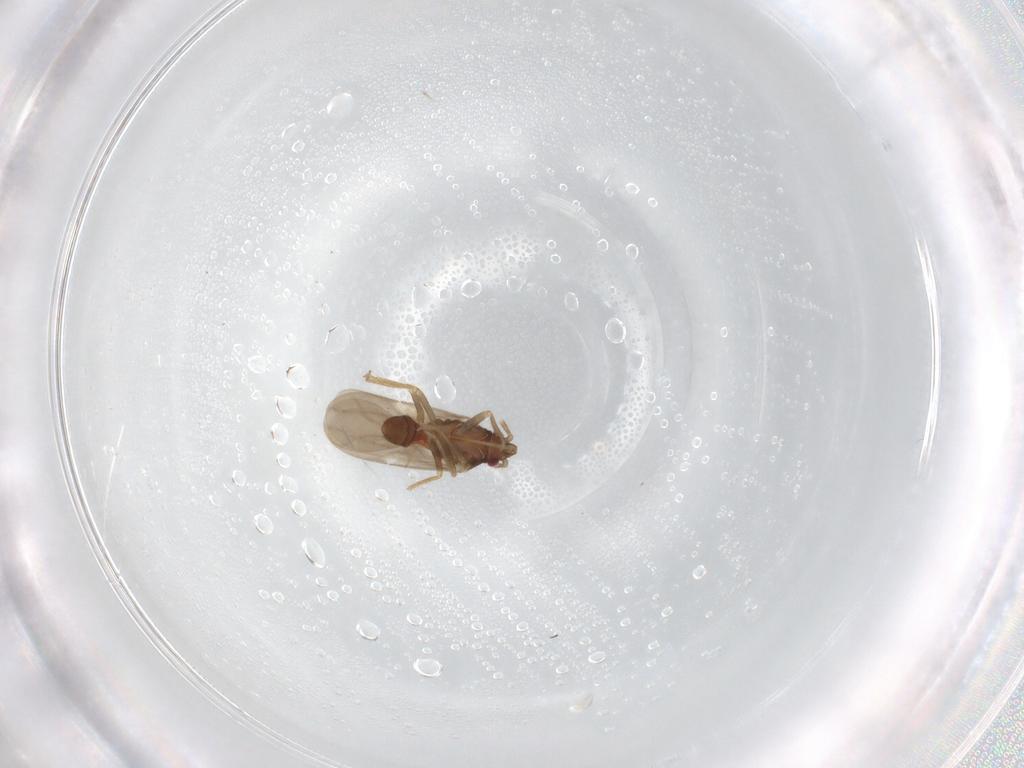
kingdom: Animalia
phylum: Arthropoda
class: Insecta
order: Hemiptera
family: Ceratocombidae
